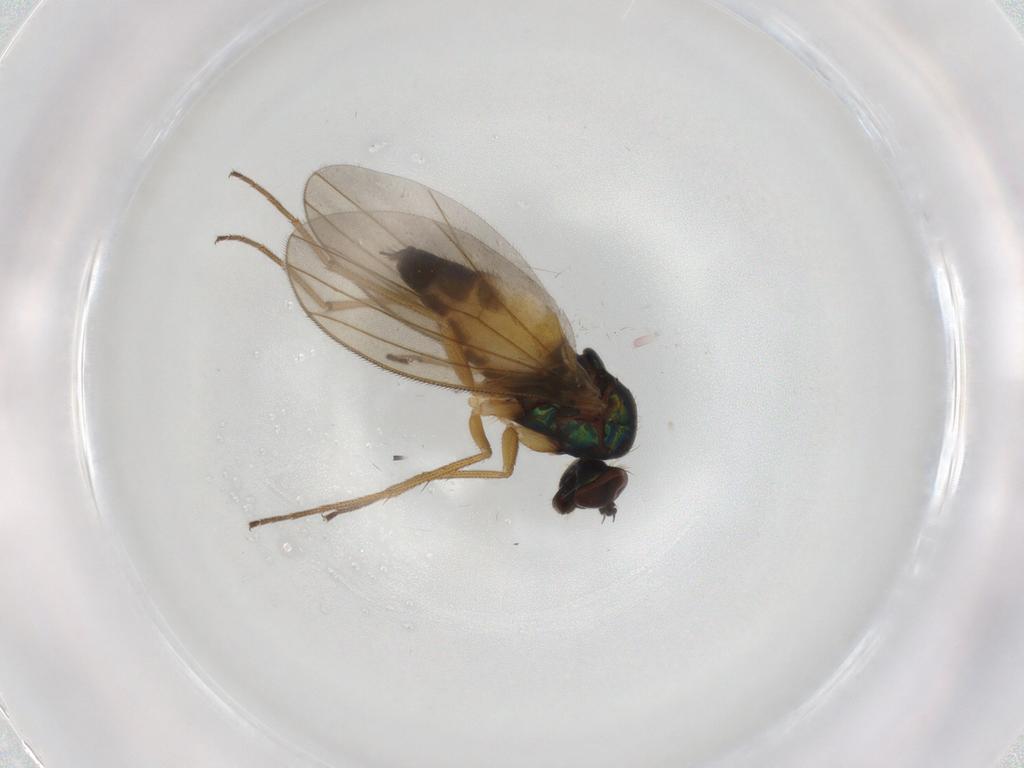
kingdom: Animalia
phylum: Arthropoda
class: Insecta
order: Diptera
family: Dolichopodidae
